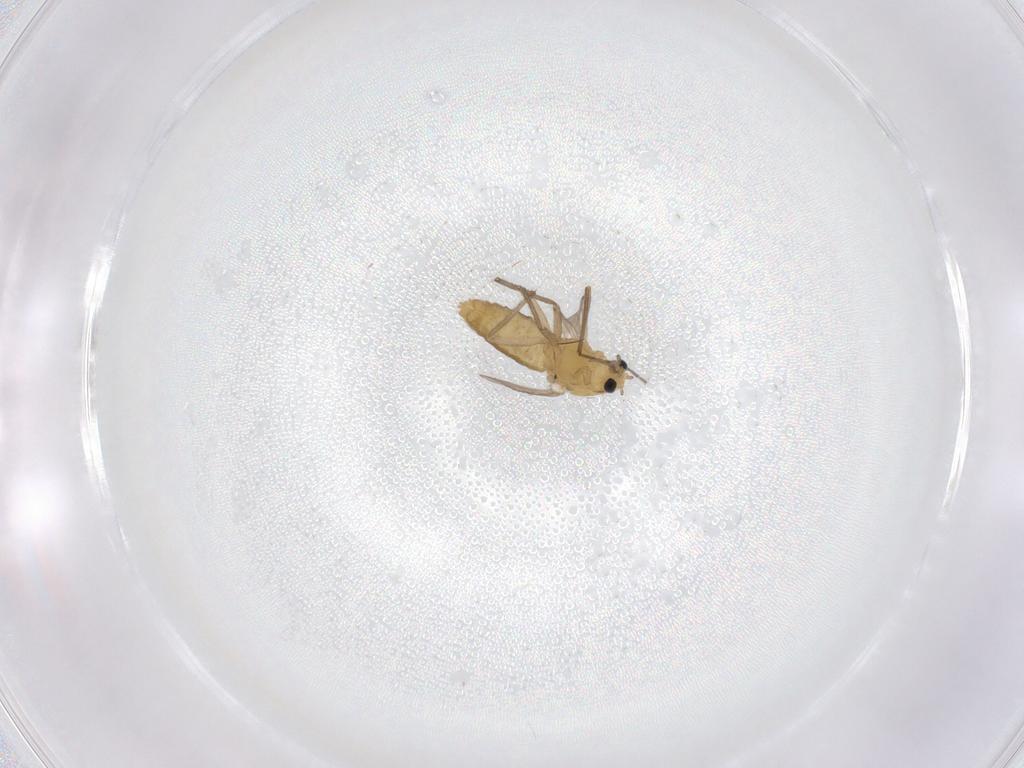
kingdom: Animalia
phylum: Arthropoda
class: Insecta
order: Diptera
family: Chironomidae
